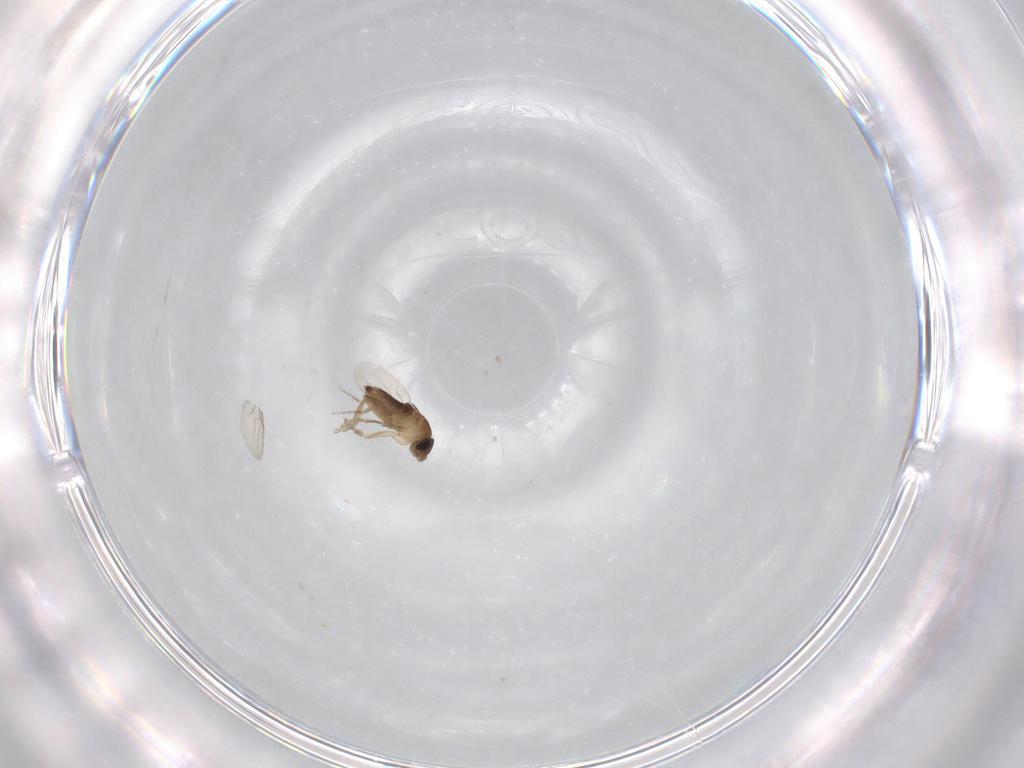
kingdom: Animalia
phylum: Arthropoda
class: Insecta
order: Diptera
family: Phoridae
